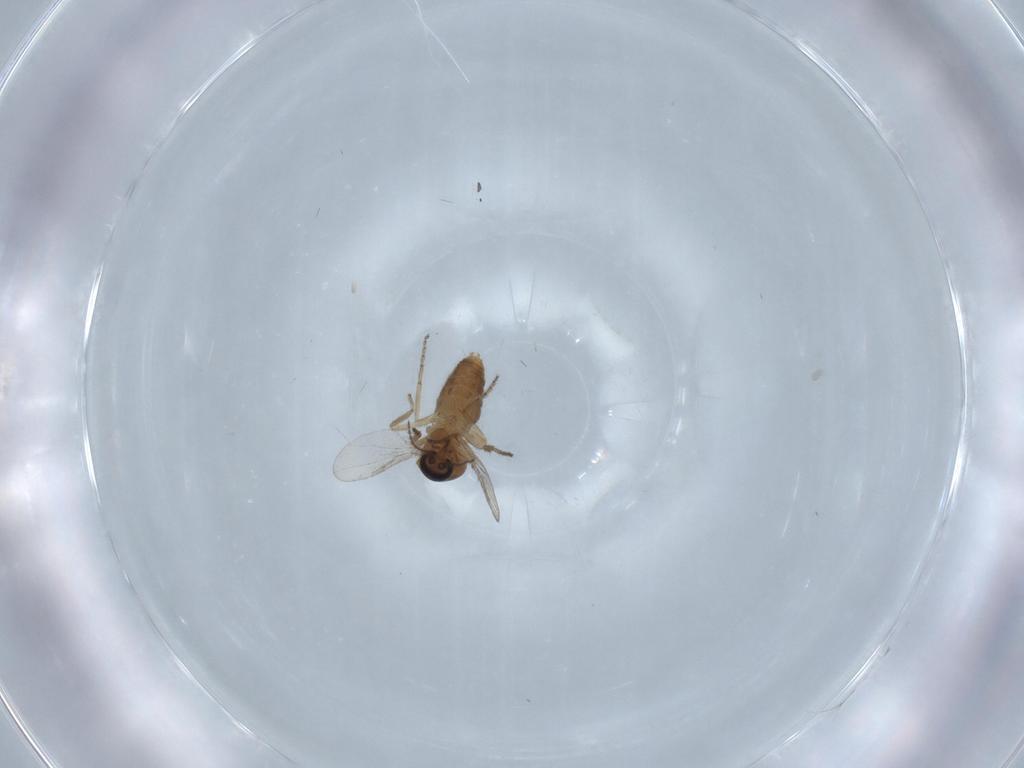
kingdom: Animalia
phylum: Arthropoda
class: Insecta
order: Diptera
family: Ceratopogonidae
